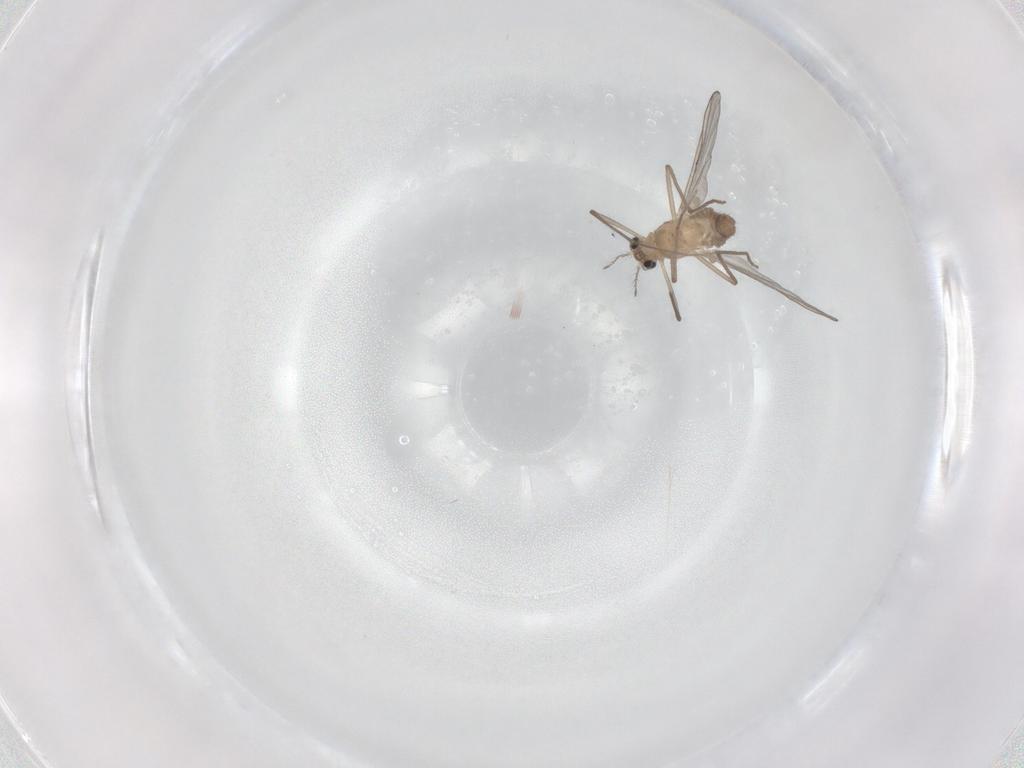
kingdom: Animalia
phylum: Arthropoda
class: Insecta
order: Diptera
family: Chironomidae
